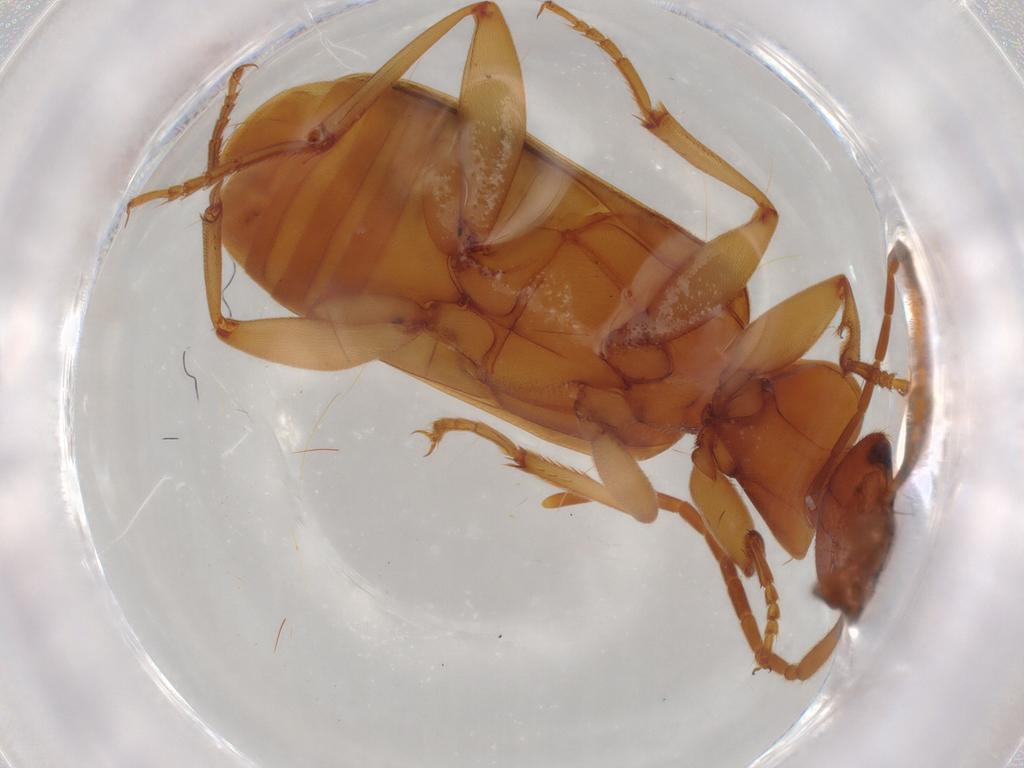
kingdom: Animalia
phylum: Arthropoda
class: Insecta
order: Coleoptera
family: Carabidae
